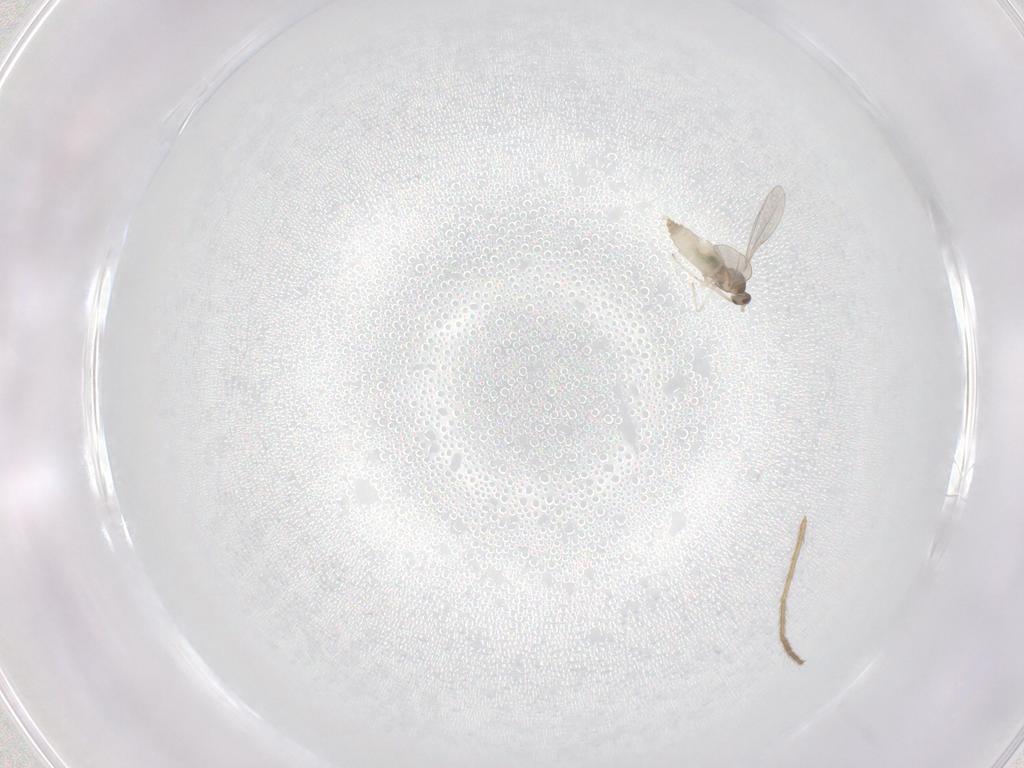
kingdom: Animalia
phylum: Arthropoda
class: Insecta
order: Diptera
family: Cecidomyiidae
